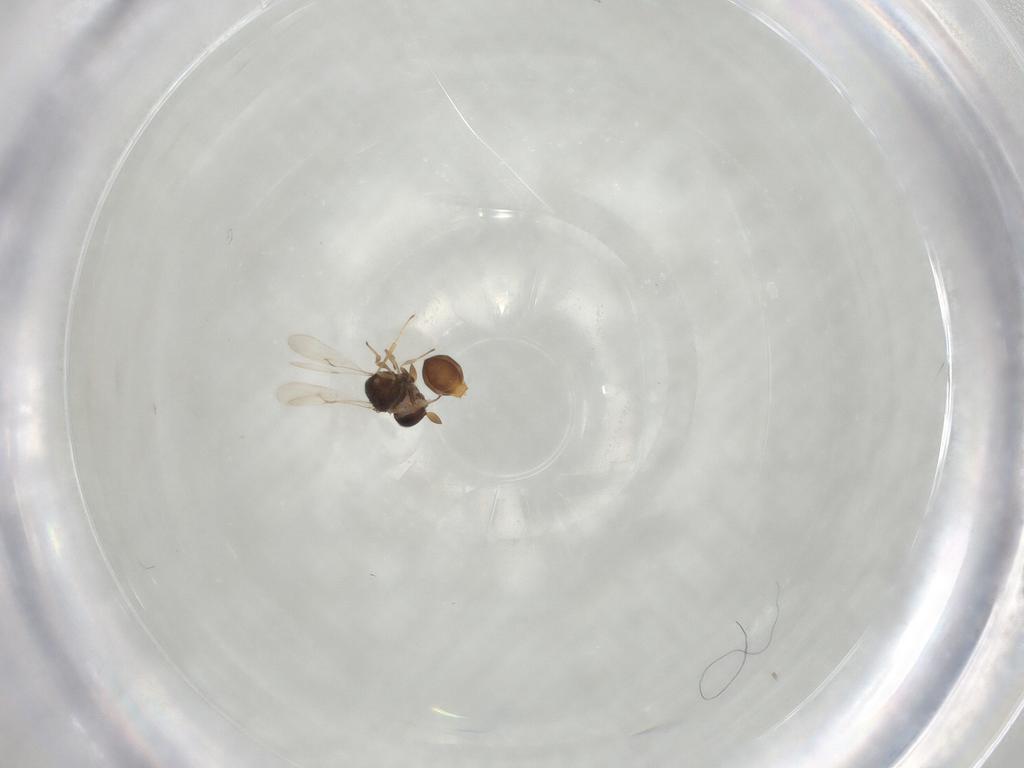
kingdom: Animalia
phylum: Arthropoda
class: Insecta
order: Hymenoptera
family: Scelionidae
